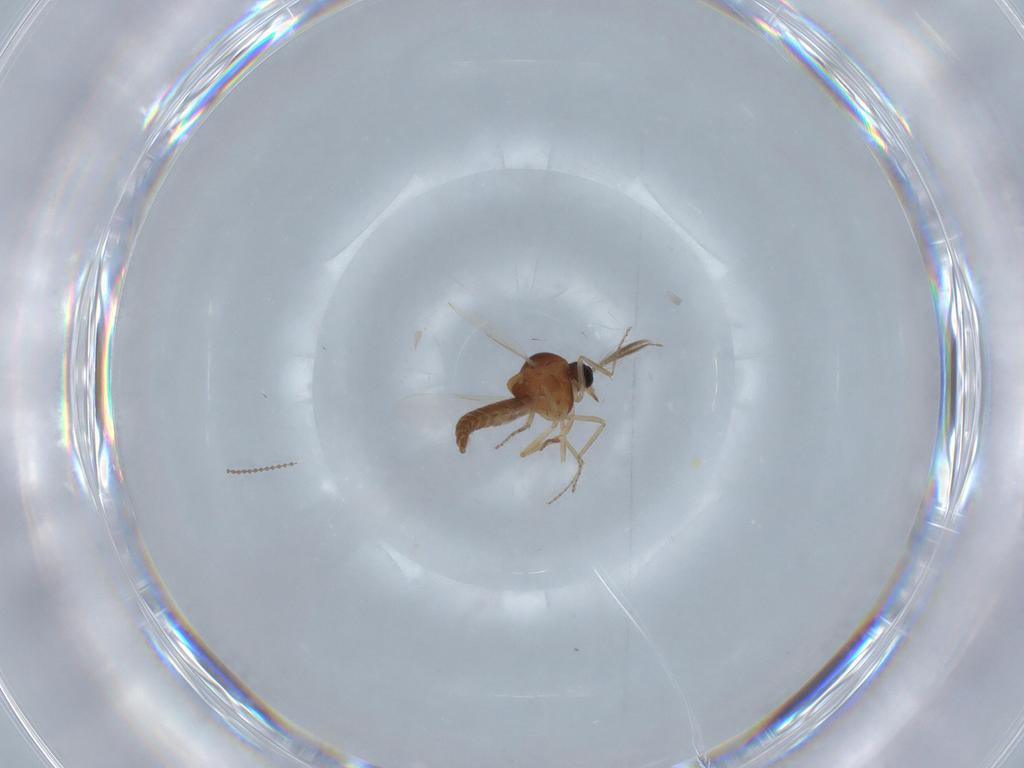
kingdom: Animalia
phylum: Arthropoda
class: Insecta
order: Diptera
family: Ceratopogonidae
